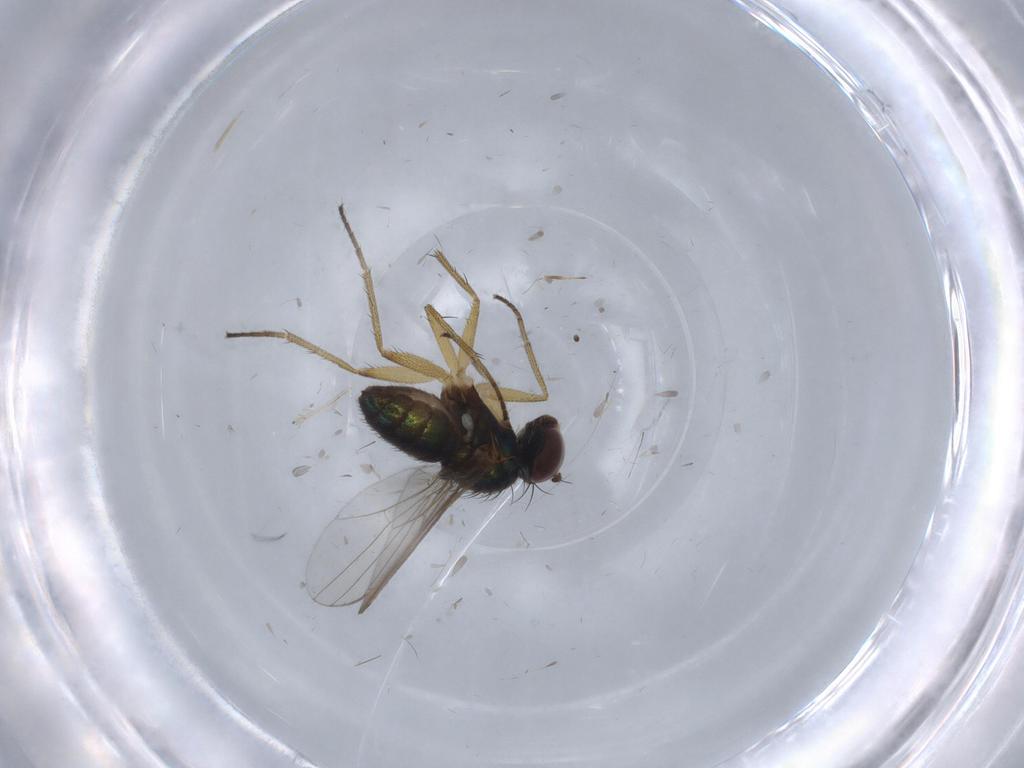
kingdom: Animalia
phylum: Arthropoda
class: Insecta
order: Diptera
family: Dolichopodidae
